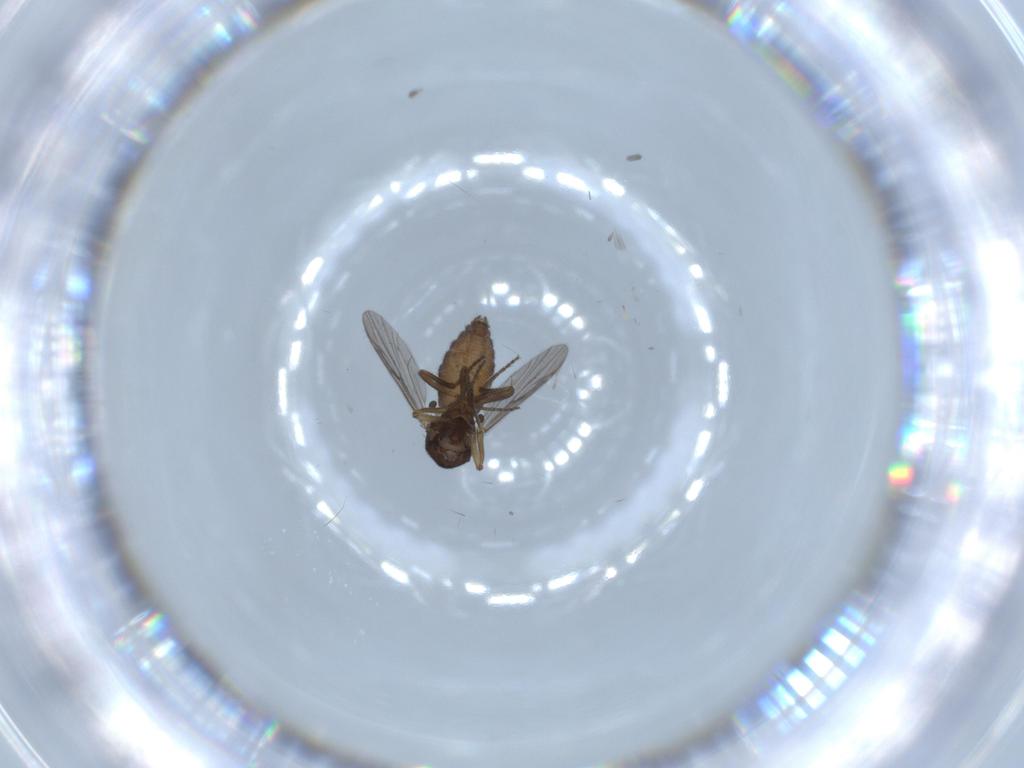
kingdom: Animalia
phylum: Arthropoda
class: Insecta
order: Diptera
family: Ceratopogonidae
